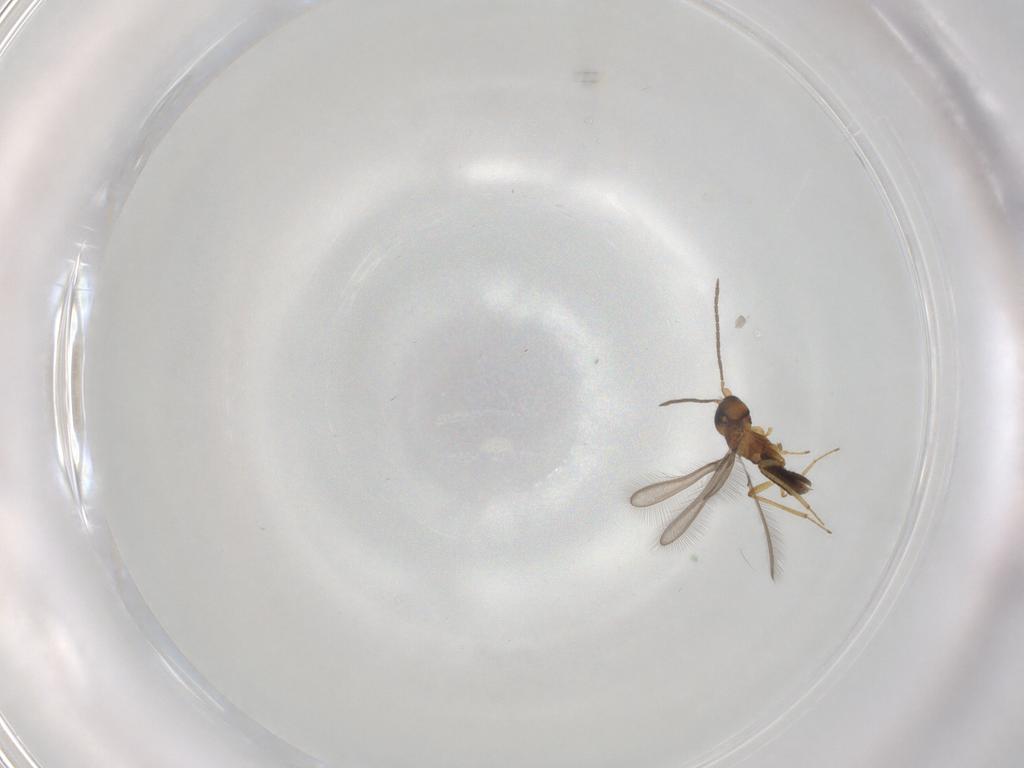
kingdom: Animalia
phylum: Arthropoda
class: Insecta
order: Hymenoptera
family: Mymaridae
